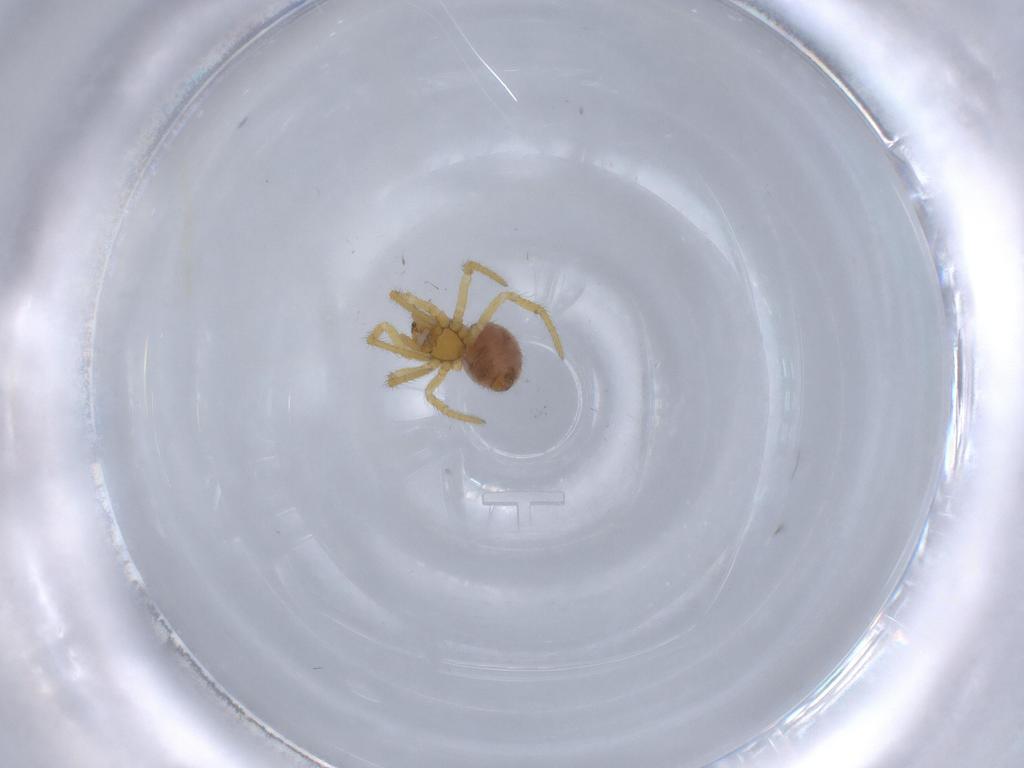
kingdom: Animalia
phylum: Arthropoda
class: Arachnida
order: Araneae
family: Theridiidae
